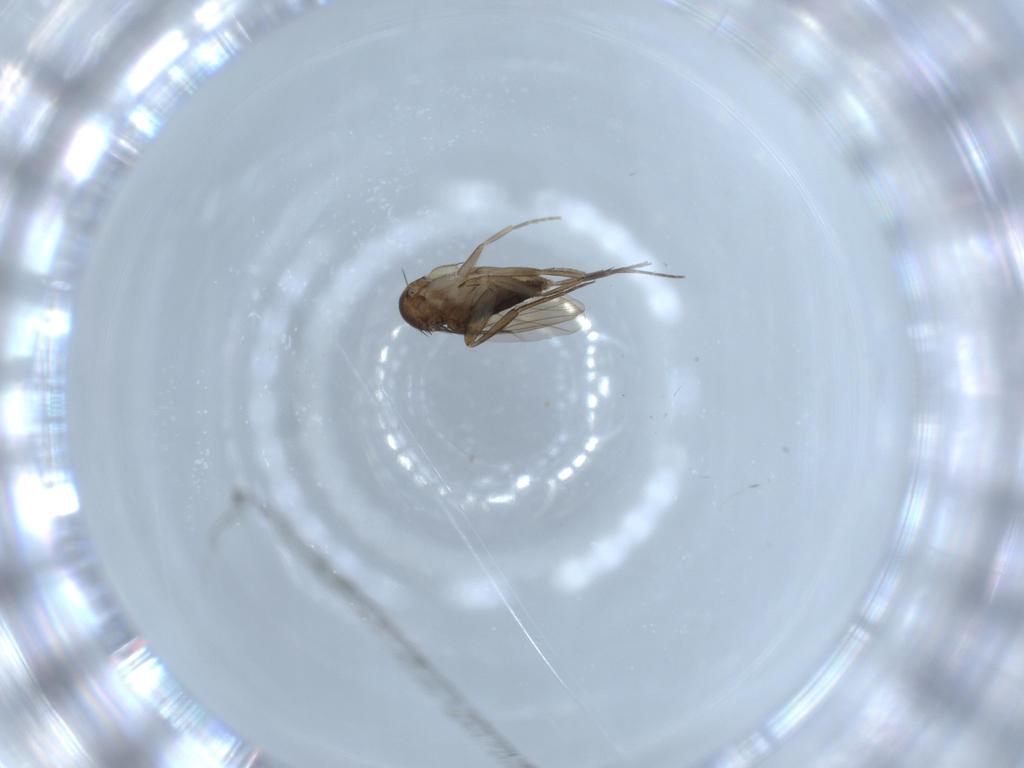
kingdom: Animalia
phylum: Arthropoda
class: Insecta
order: Diptera
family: Phoridae
